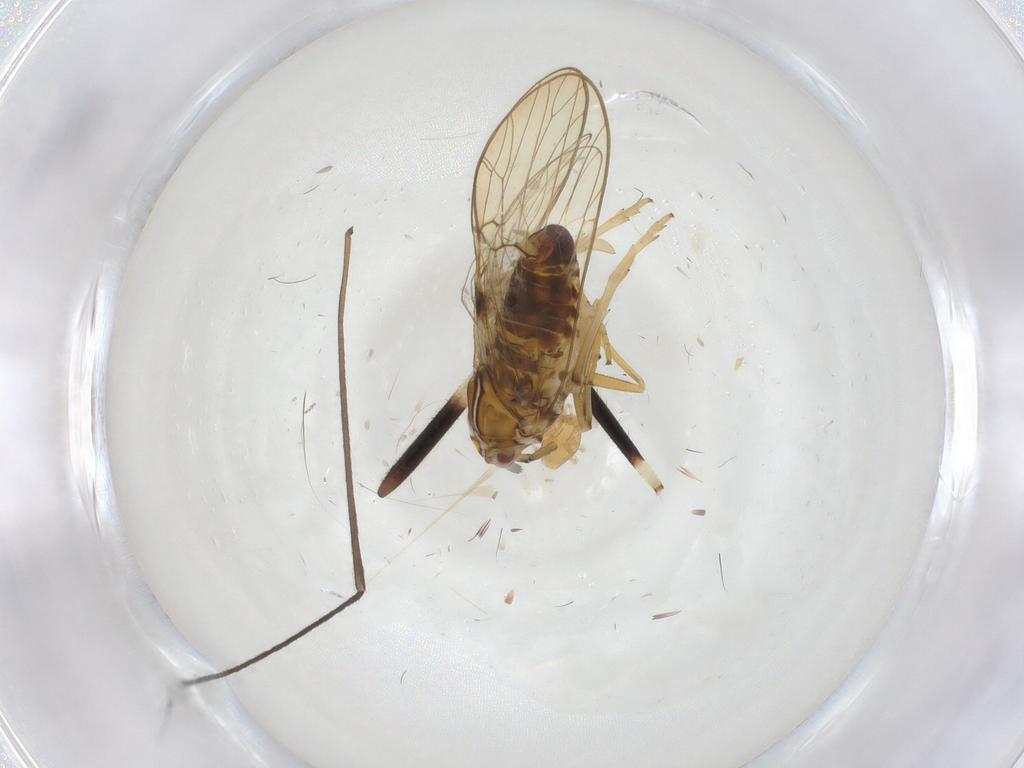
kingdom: Animalia
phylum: Arthropoda
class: Insecta
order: Hemiptera
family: Delphacidae
